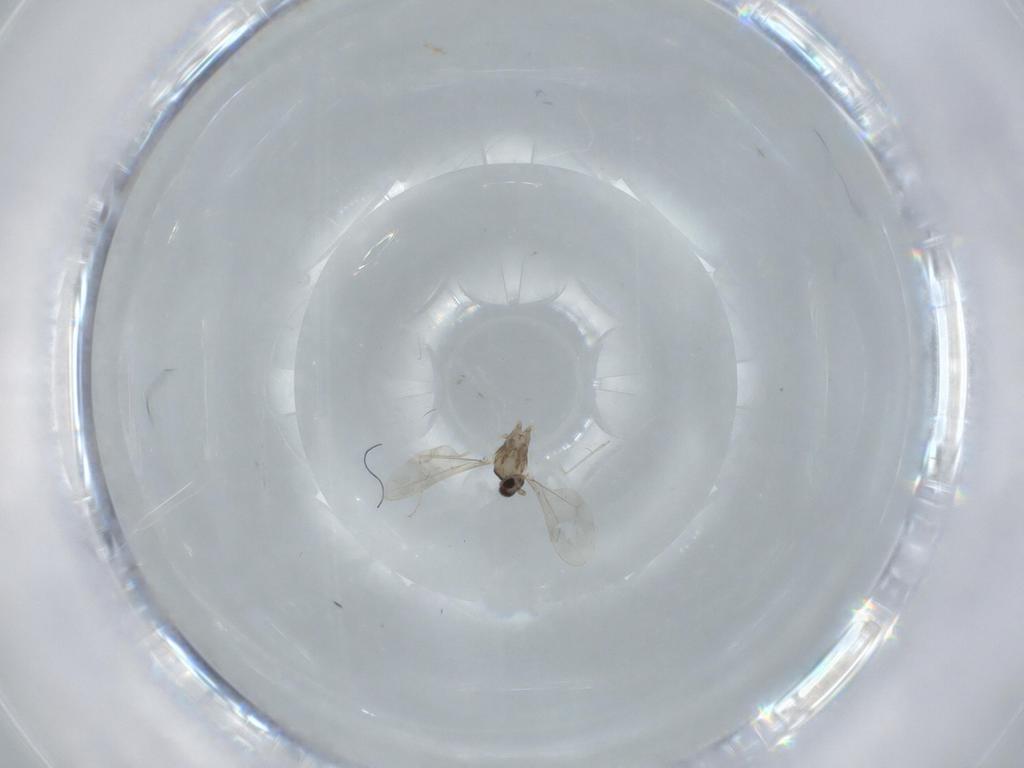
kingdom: Animalia
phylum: Arthropoda
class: Insecta
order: Diptera
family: Cecidomyiidae
